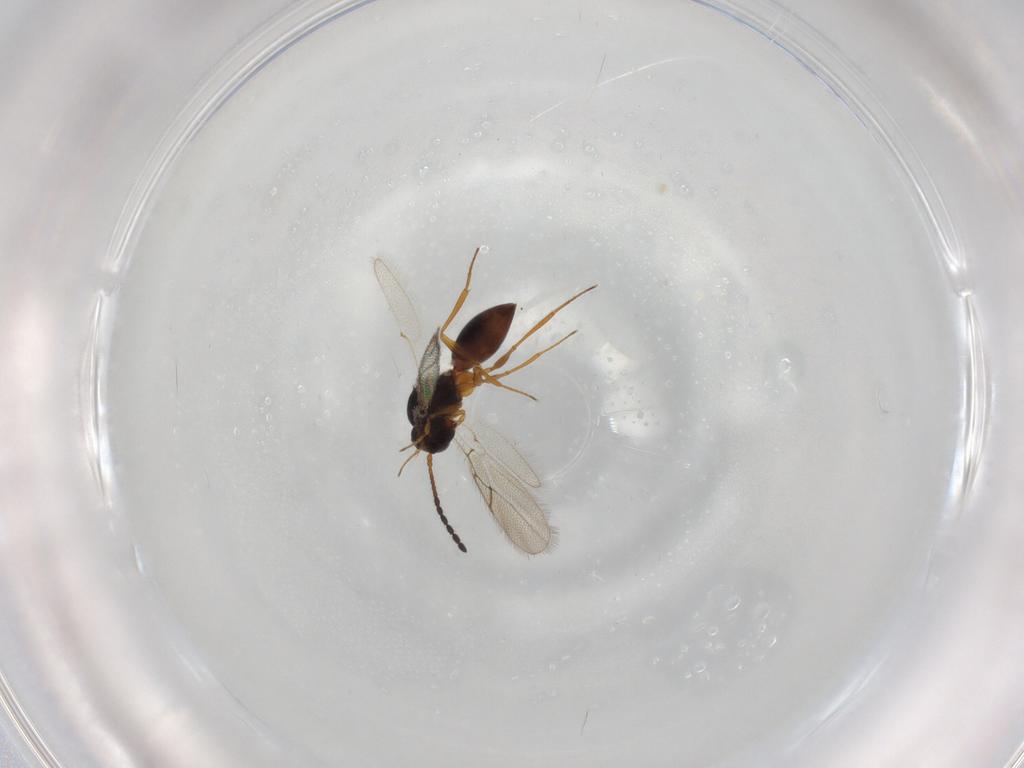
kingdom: Animalia
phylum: Arthropoda
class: Insecta
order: Hymenoptera
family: Figitidae
